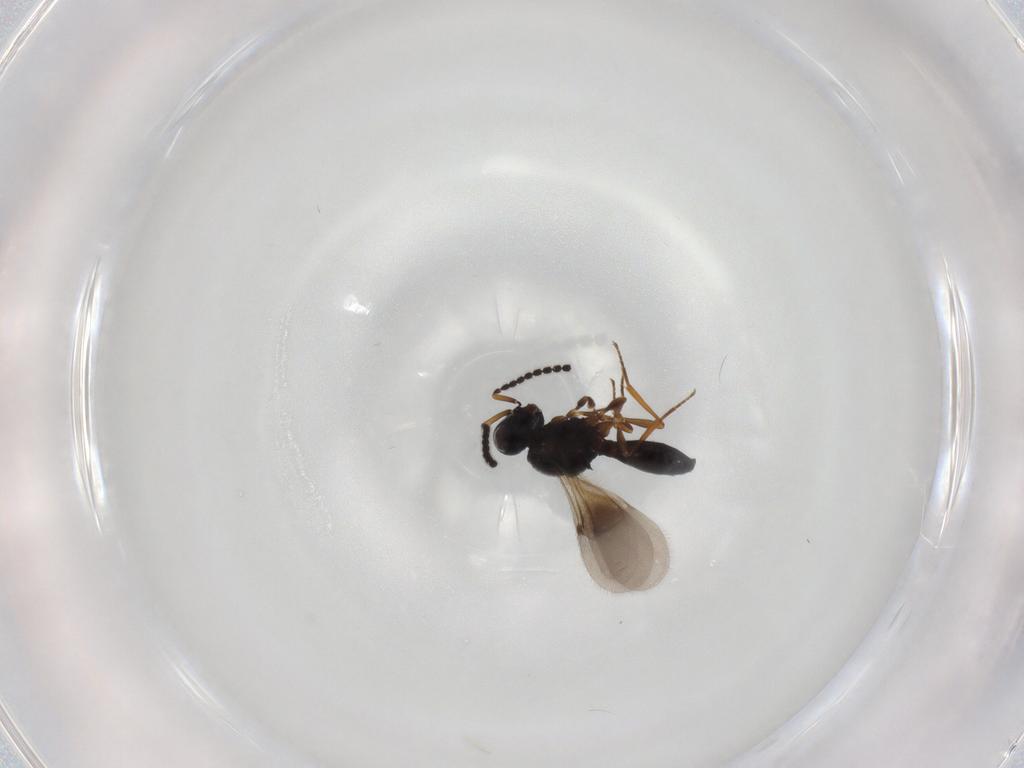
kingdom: Animalia
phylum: Arthropoda
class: Insecta
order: Hymenoptera
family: Scelionidae
